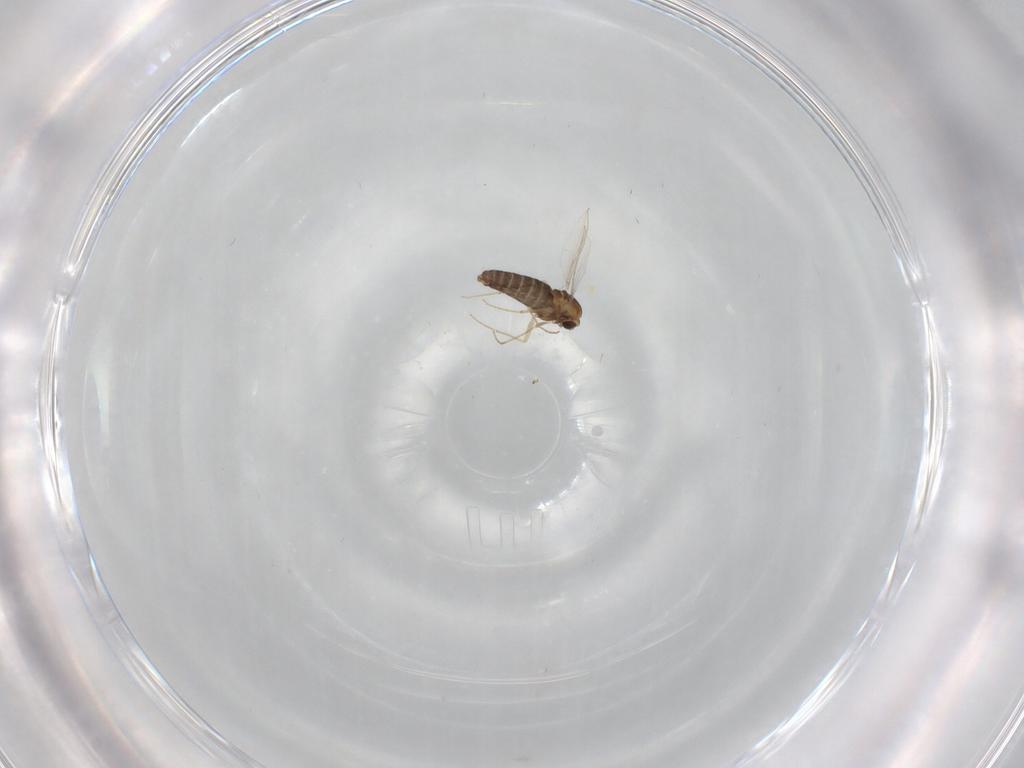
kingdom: Animalia
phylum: Arthropoda
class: Insecta
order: Diptera
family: Chironomidae
